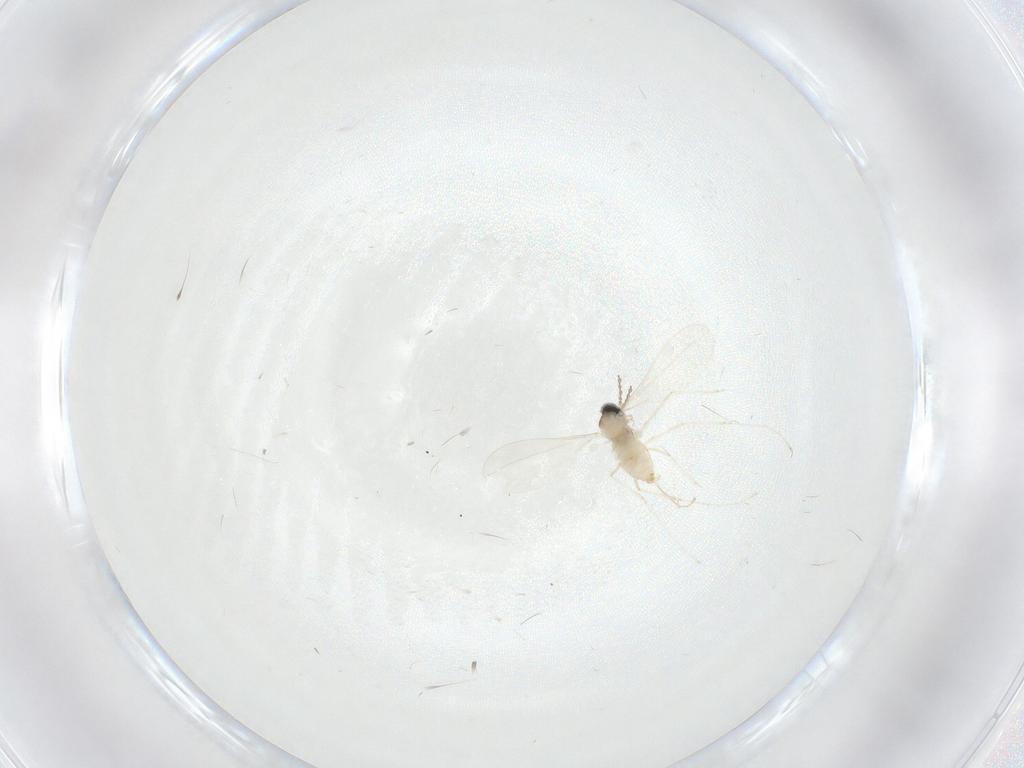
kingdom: Animalia
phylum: Arthropoda
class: Insecta
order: Diptera
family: Cecidomyiidae
